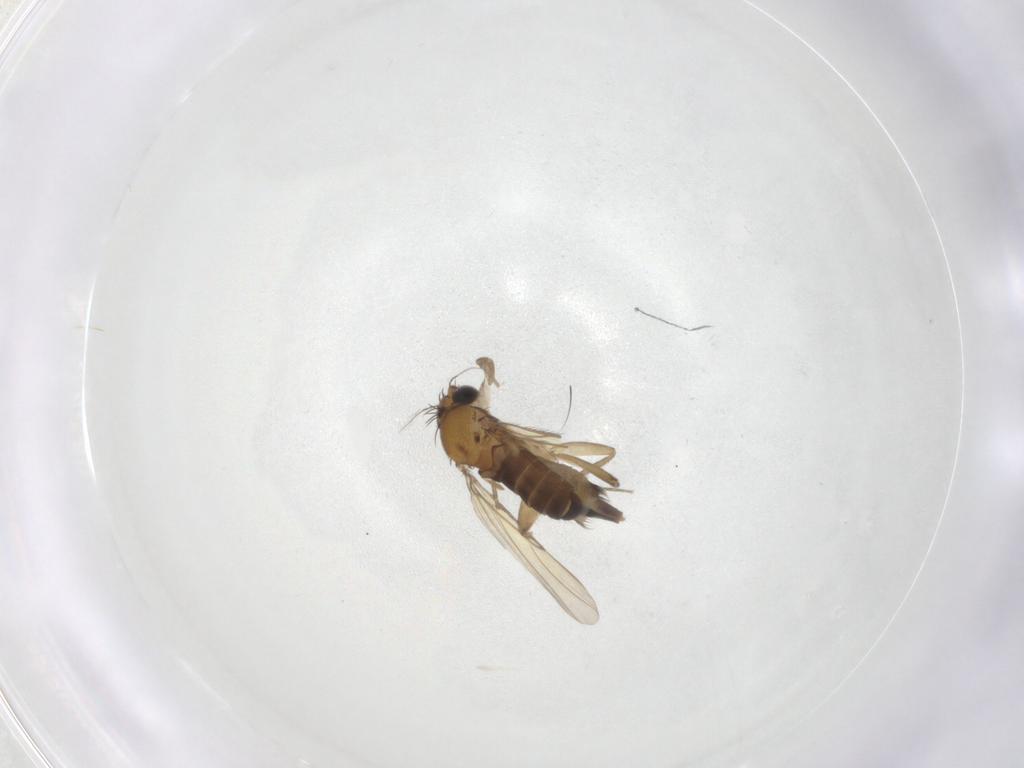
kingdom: Animalia
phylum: Arthropoda
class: Insecta
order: Diptera
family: Phoridae
